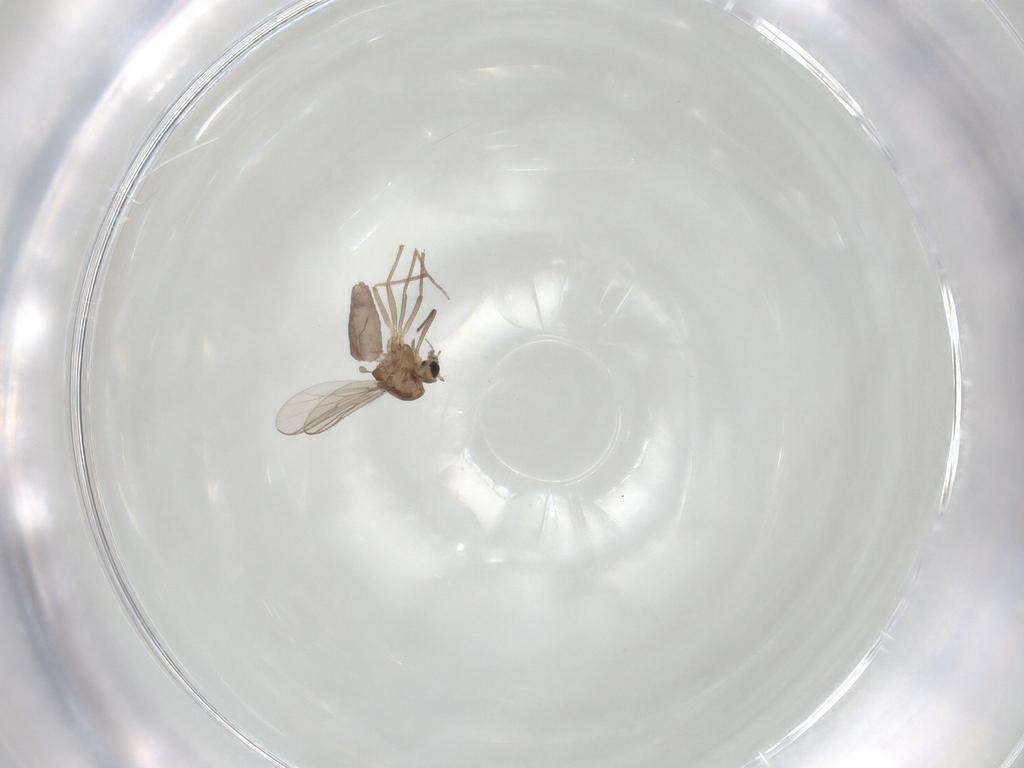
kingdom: Animalia
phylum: Arthropoda
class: Insecta
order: Diptera
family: Chironomidae
